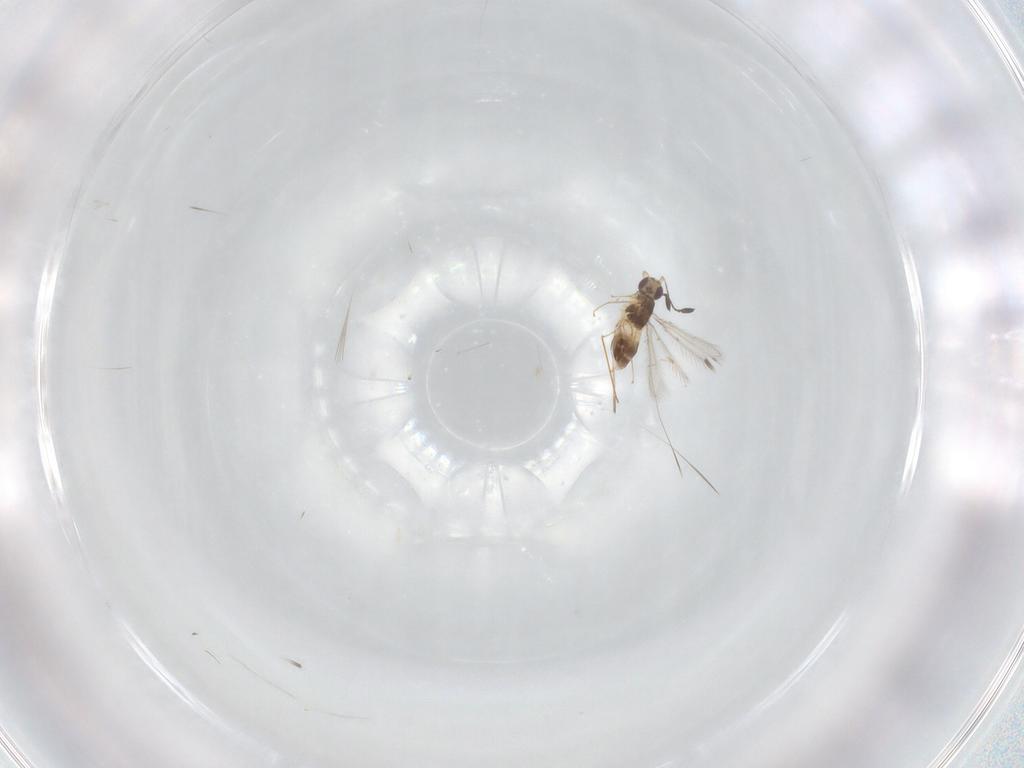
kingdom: Animalia
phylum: Arthropoda
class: Insecta
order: Hymenoptera
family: Mymaridae
